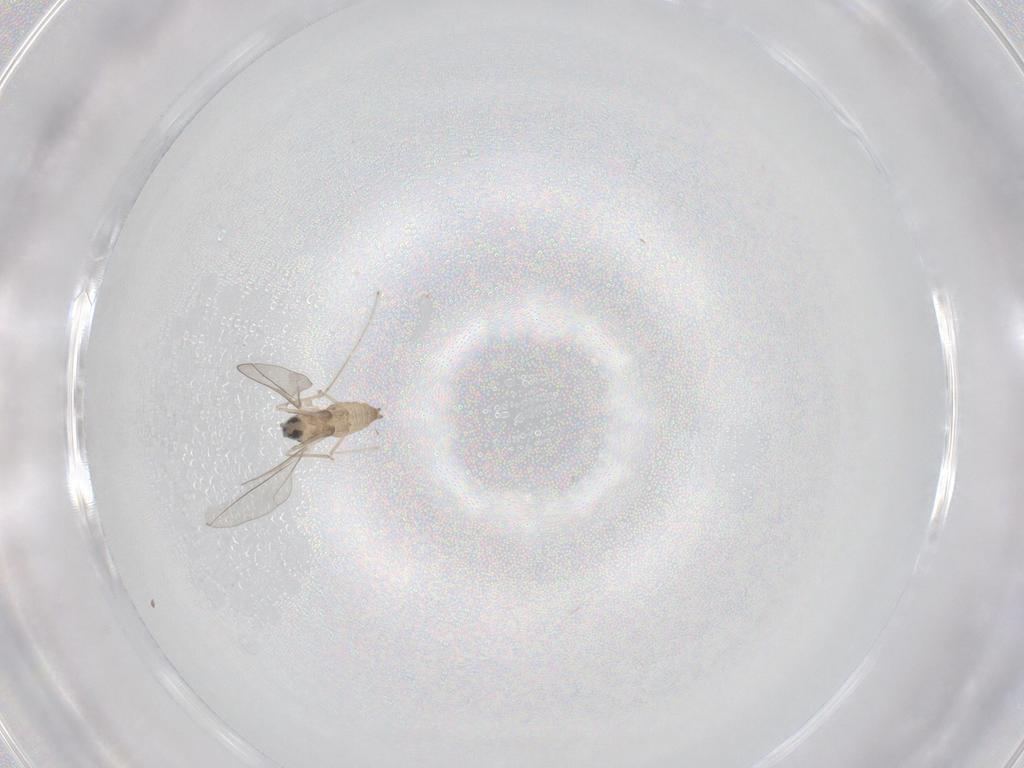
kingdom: Animalia
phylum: Arthropoda
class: Insecta
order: Diptera
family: Cecidomyiidae
